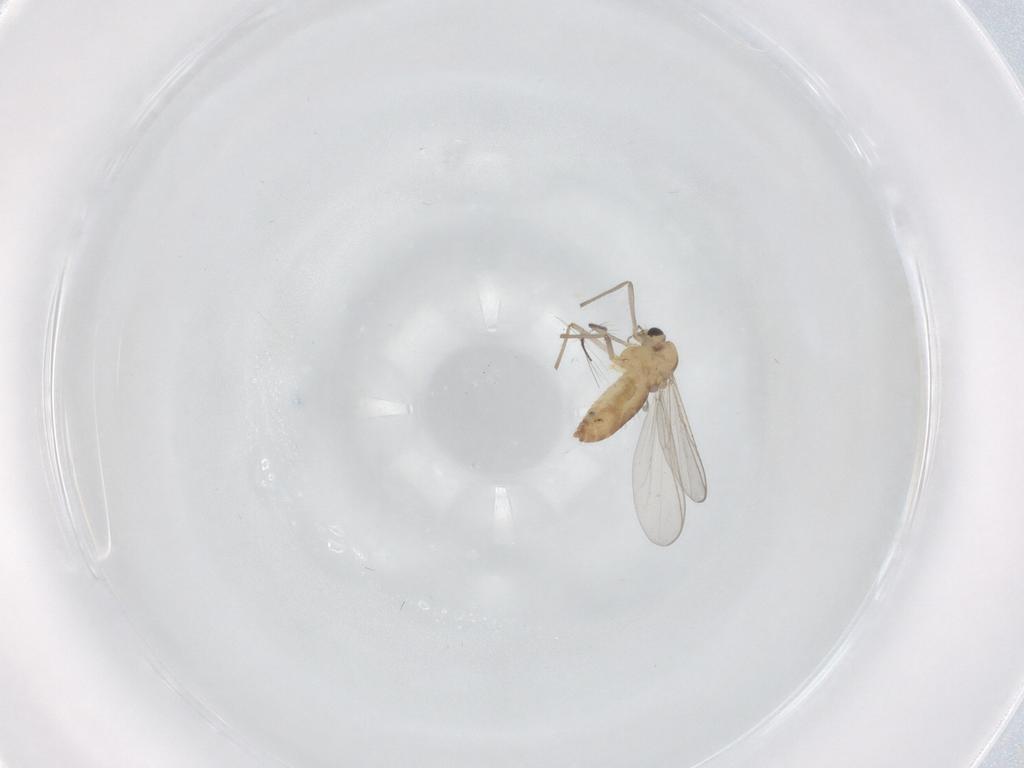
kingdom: Animalia
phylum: Arthropoda
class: Insecta
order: Diptera
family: Chironomidae
